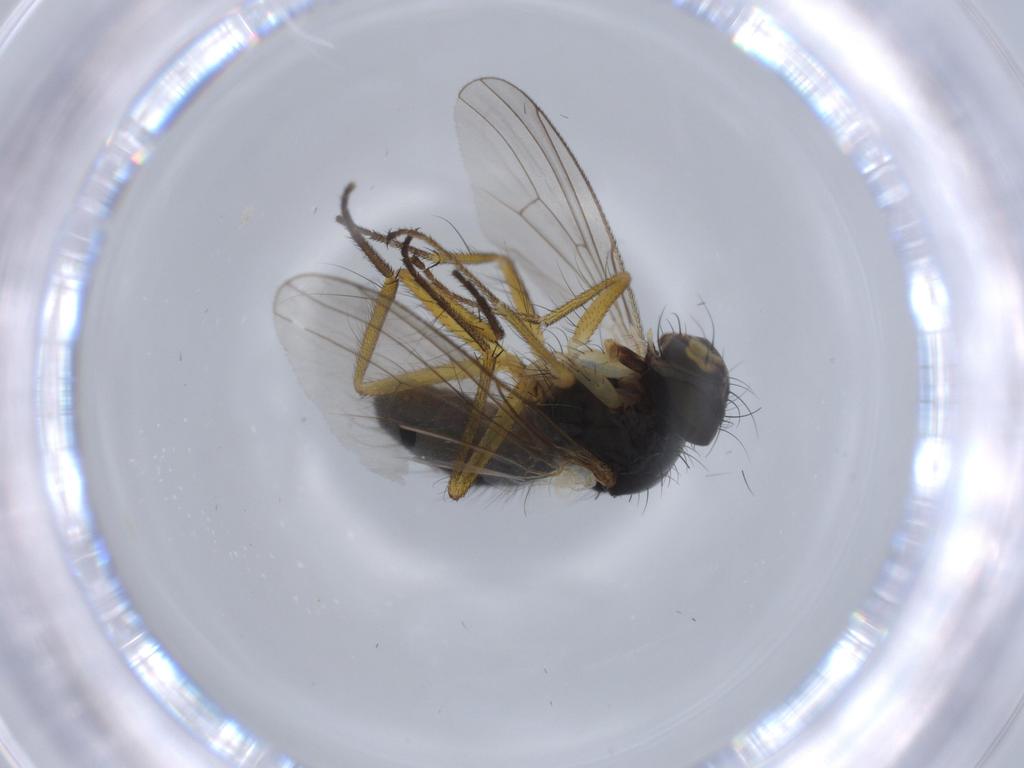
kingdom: Animalia
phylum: Arthropoda
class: Insecta
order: Diptera
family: Muscidae
